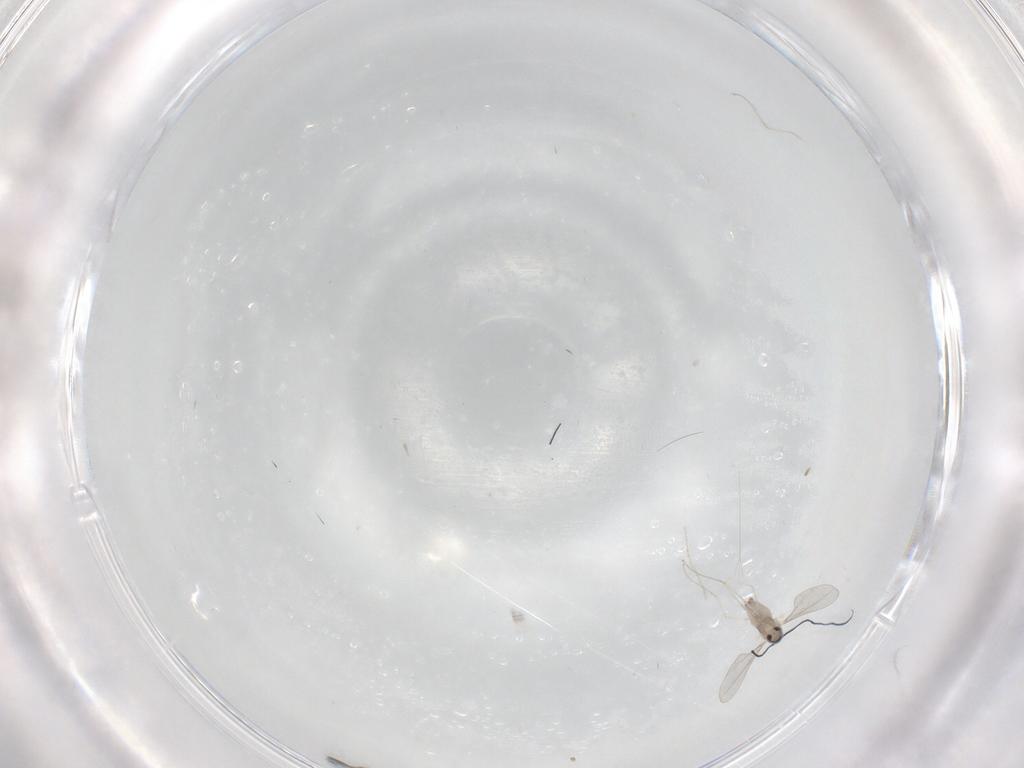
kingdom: Animalia
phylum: Arthropoda
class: Insecta
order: Diptera
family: Cecidomyiidae
